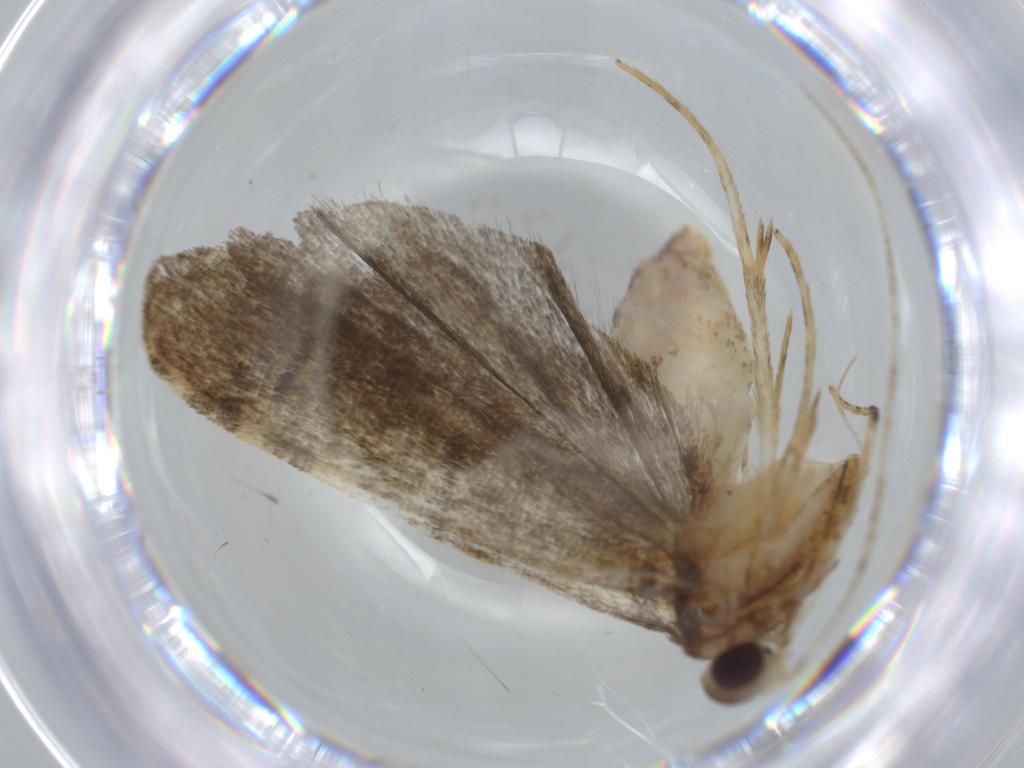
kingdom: Animalia
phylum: Arthropoda
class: Insecta
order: Lepidoptera
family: Autostichidae
